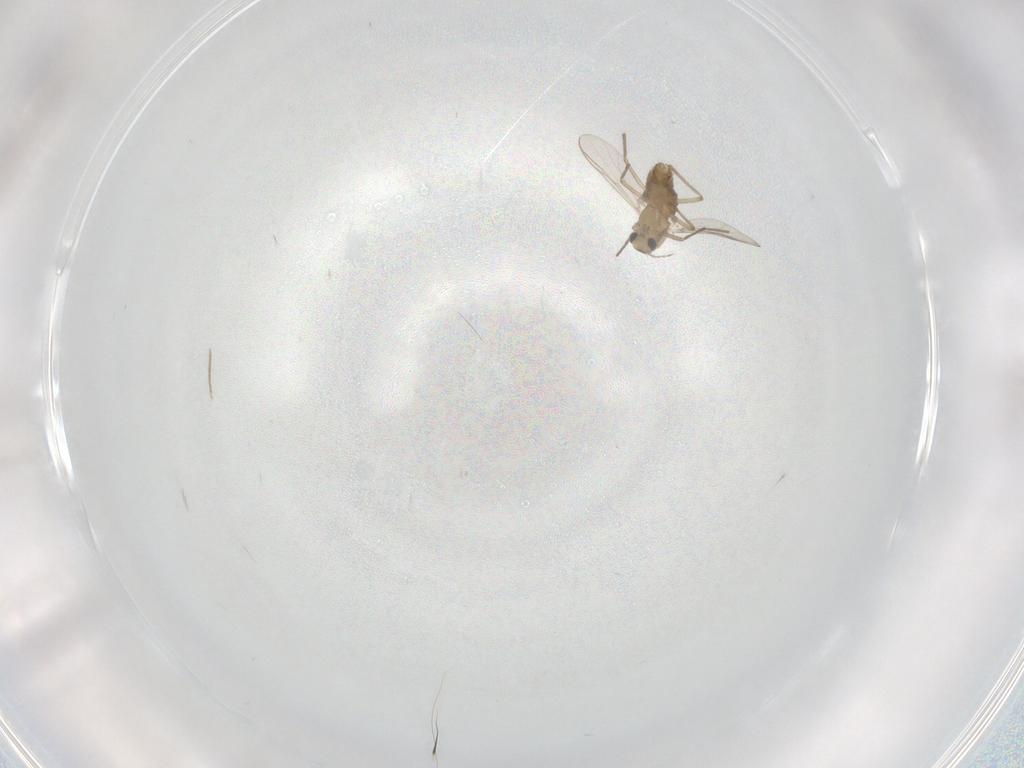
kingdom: Animalia
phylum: Arthropoda
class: Insecta
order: Diptera
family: Chironomidae
